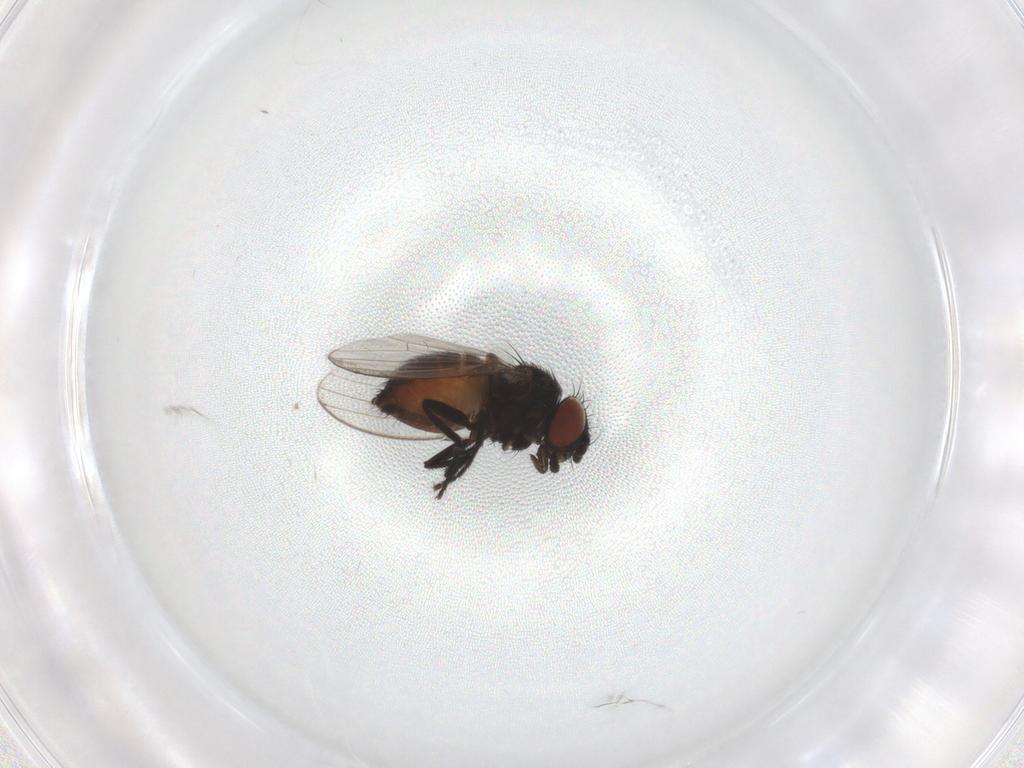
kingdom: Animalia
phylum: Arthropoda
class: Insecta
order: Diptera
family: Milichiidae
